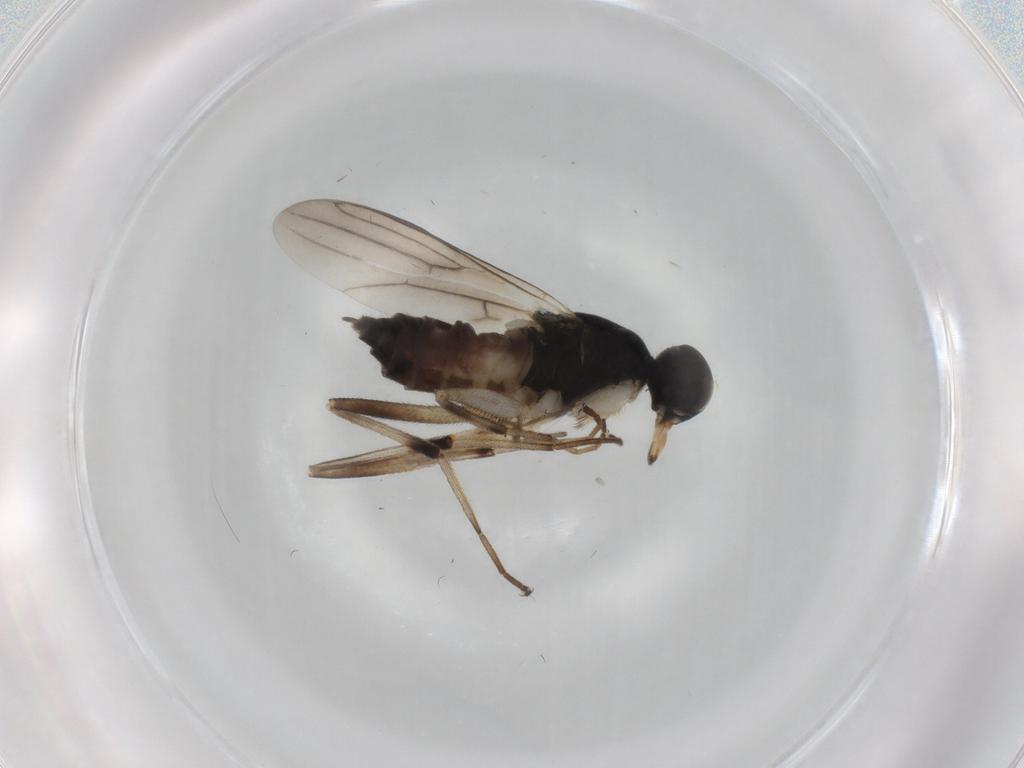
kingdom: Animalia
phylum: Arthropoda
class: Insecta
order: Diptera
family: Hybotidae
